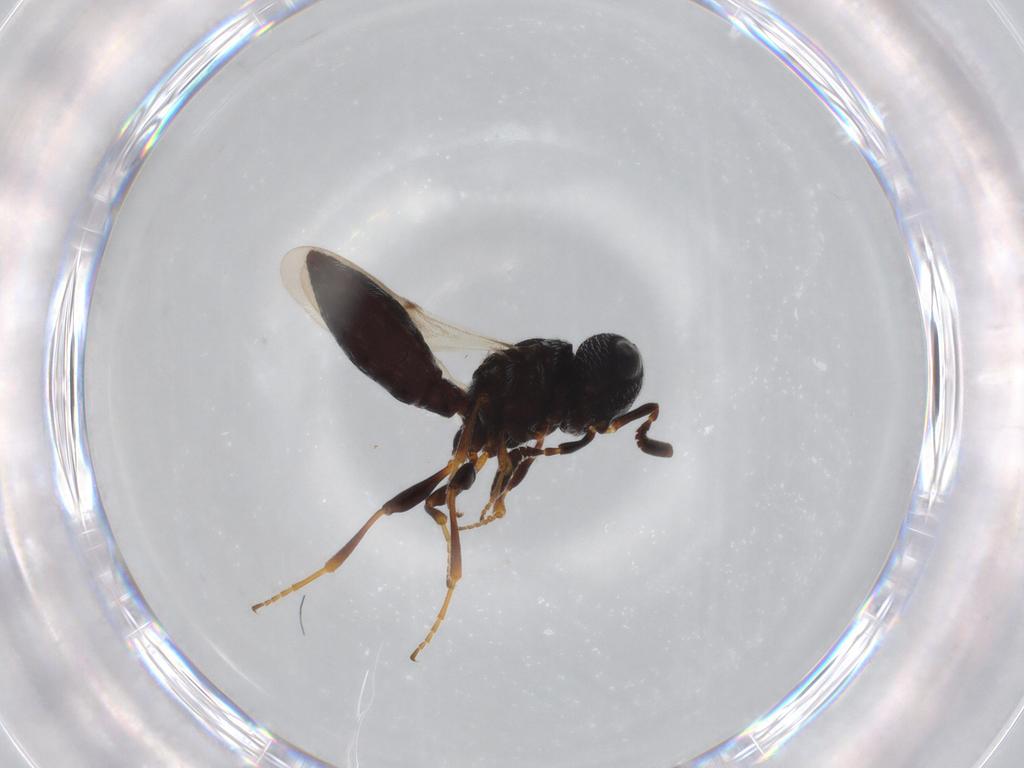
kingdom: Animalia
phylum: Arthropoda
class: Insecta
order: Hymenoptera
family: Scelionidae
